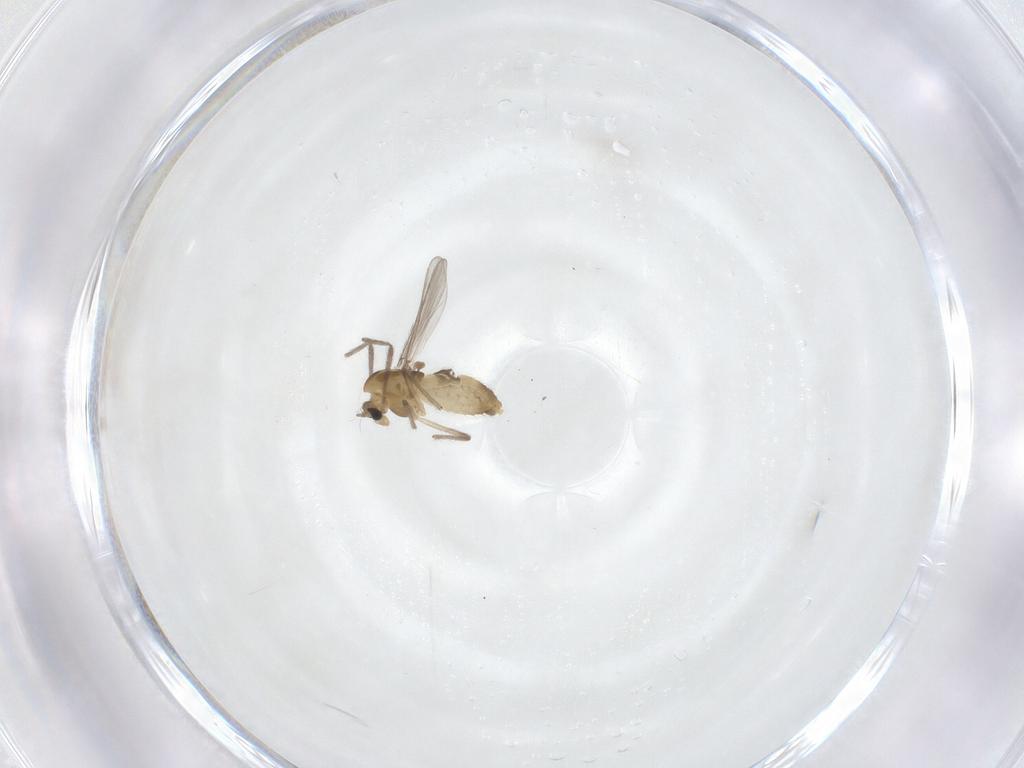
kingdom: Animalia
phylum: Arthropoda
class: Insecta
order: Diptera
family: Chironomidae
